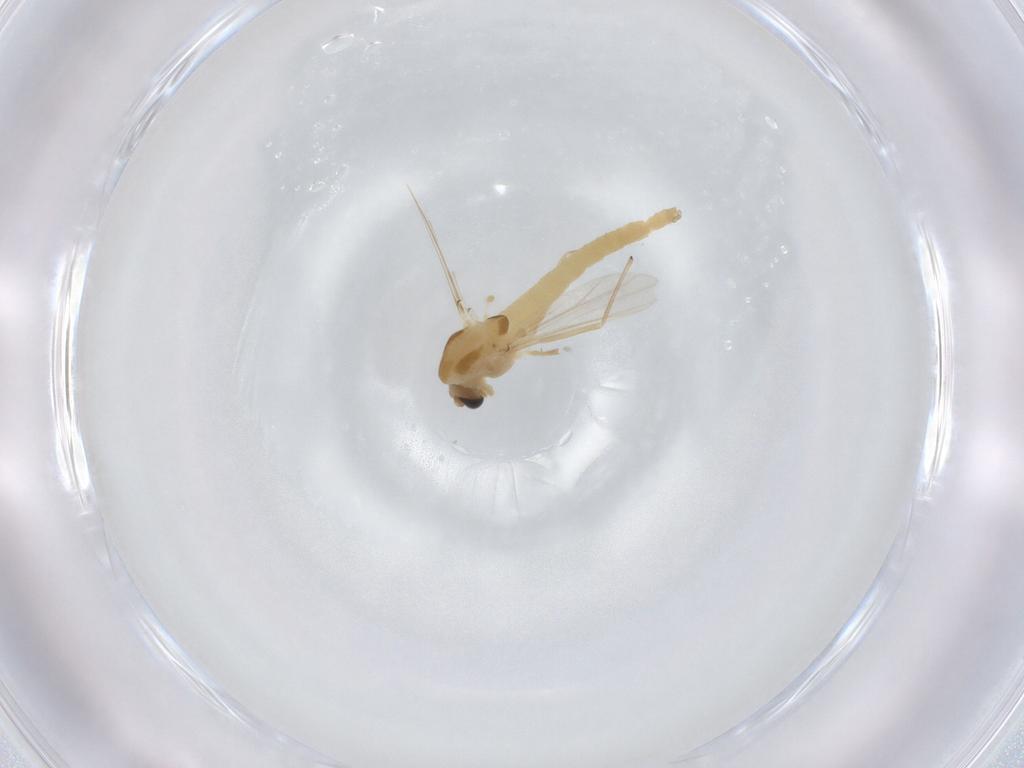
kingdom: Animalia
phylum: Arthropoda
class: Insecta
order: Diptera
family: Chironomidae
